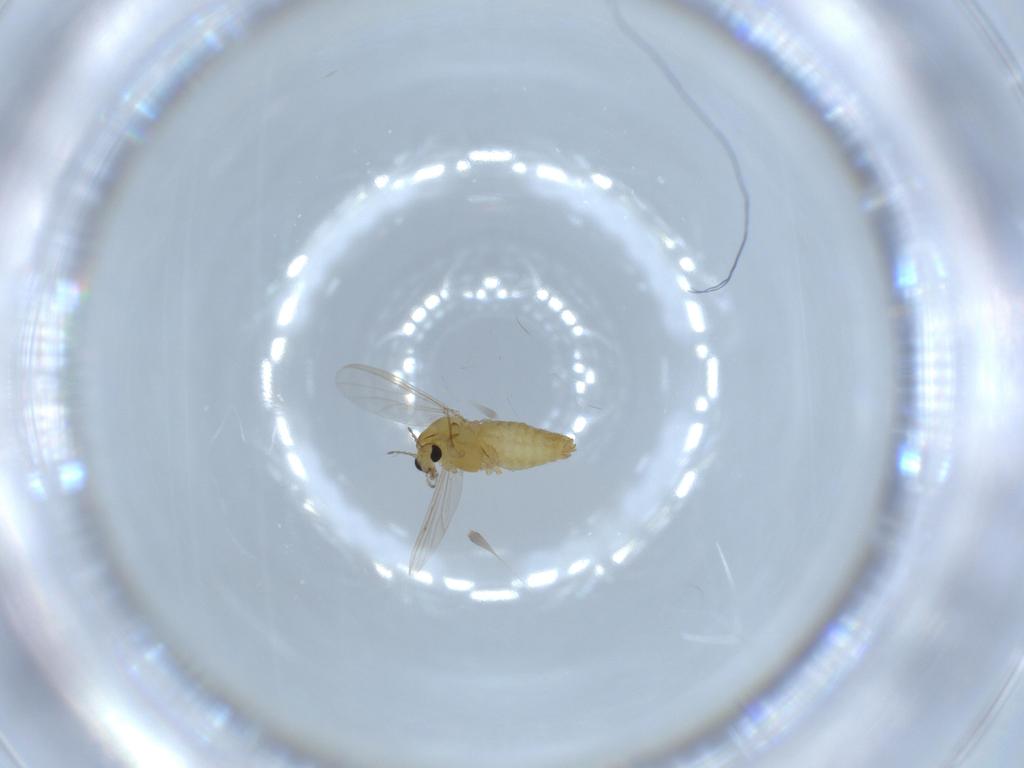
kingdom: Animalia
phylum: Arthropoda
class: Insecta
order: Diptera
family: Chironomidae
